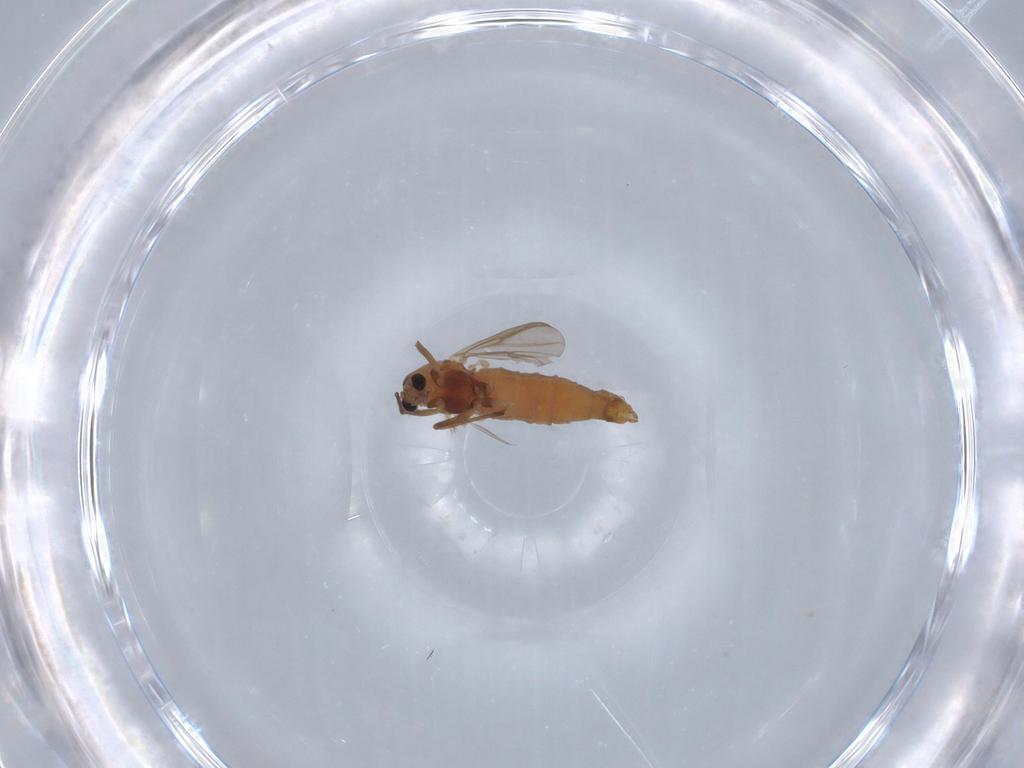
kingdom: Animalia
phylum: Arthropoda
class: Insecta
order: Diptera
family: Chironomidae
